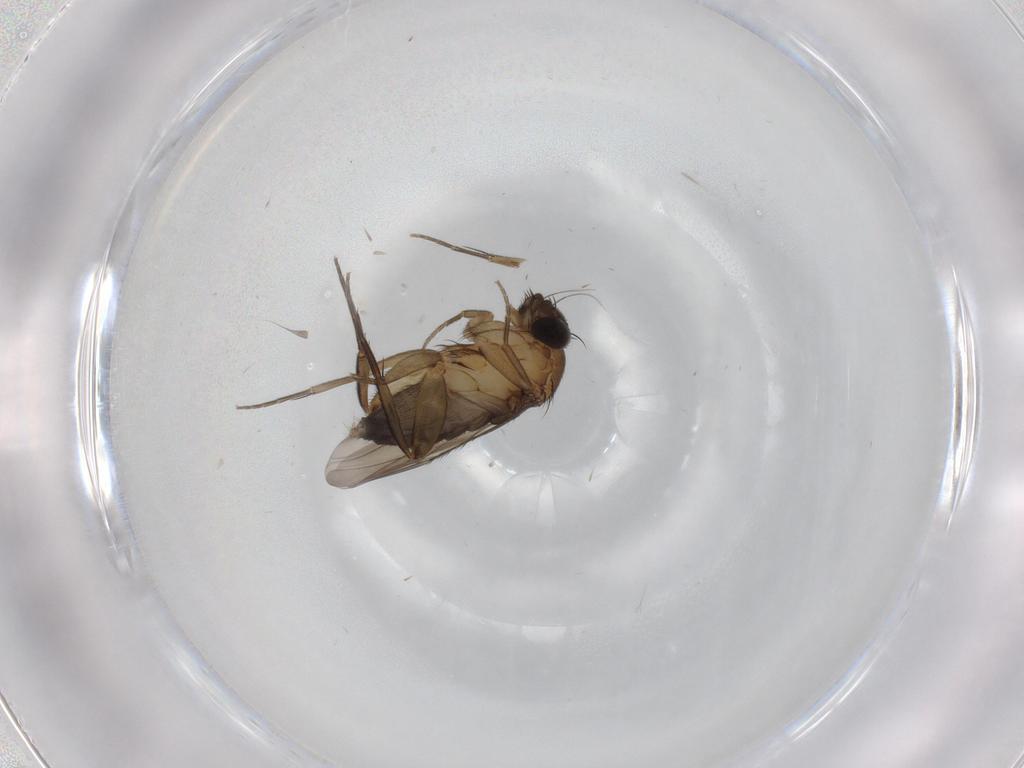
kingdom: Animalia
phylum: Arthropoda
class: Insecta
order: Diptera
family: Phoridae
